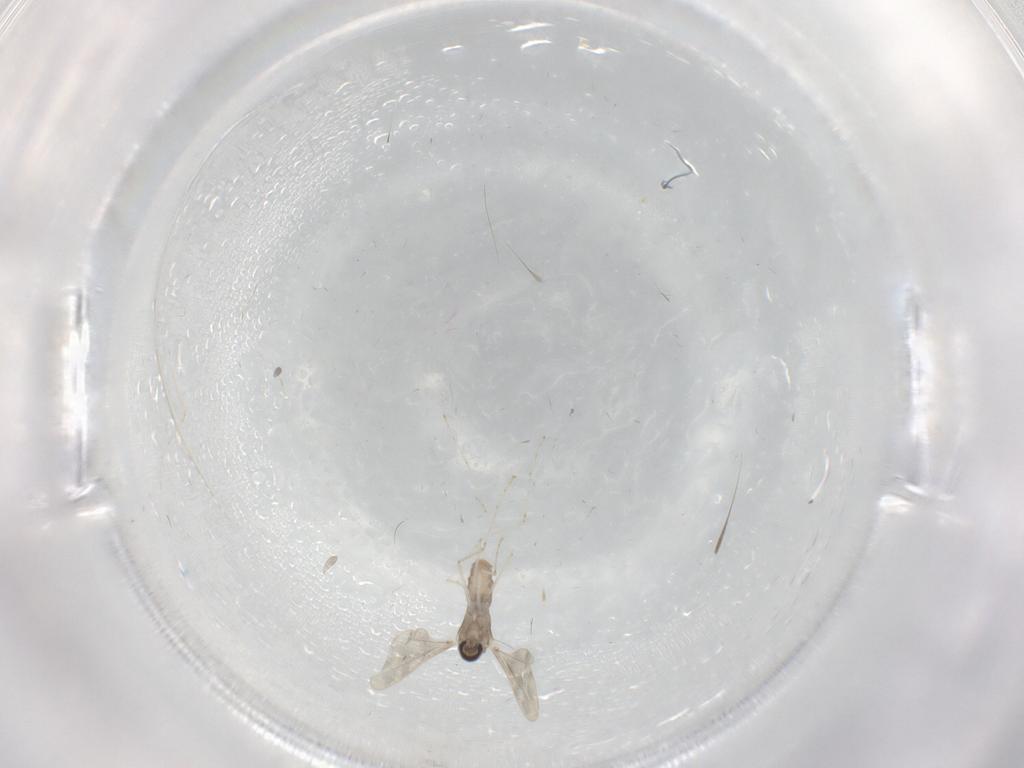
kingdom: Animalia
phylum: Arthropoda
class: Insecta
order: Diptera
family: Cecidomyiidae
